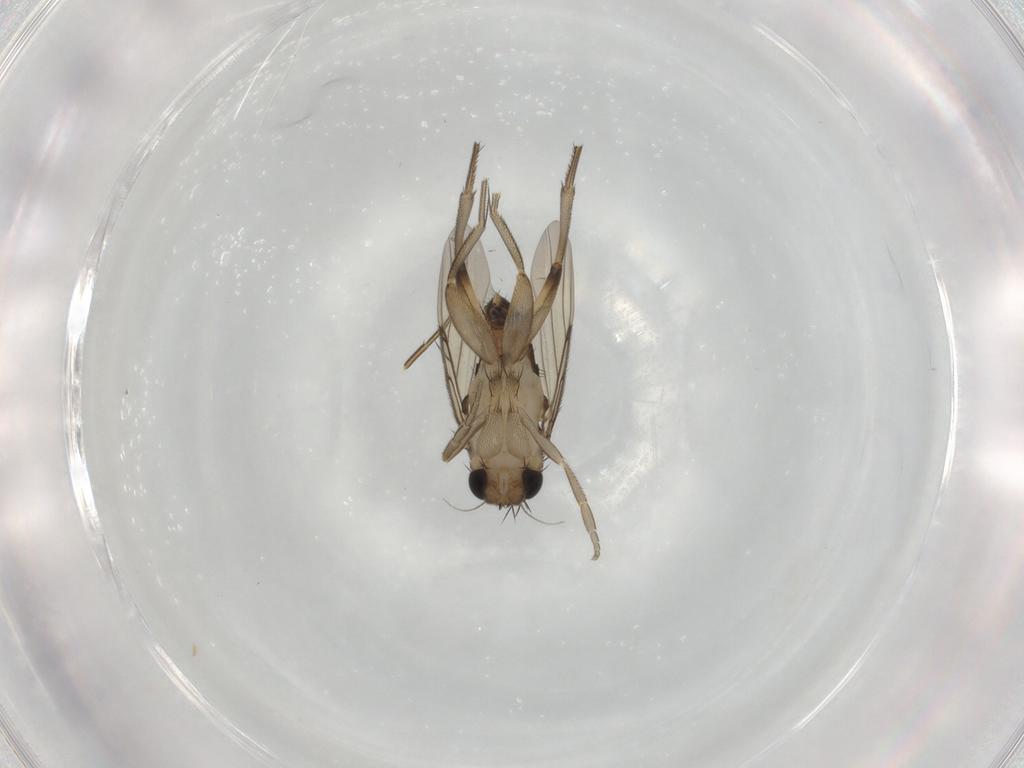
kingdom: Animalia
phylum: Arthropoda
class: Insecta
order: Diptera
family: Phoridae
